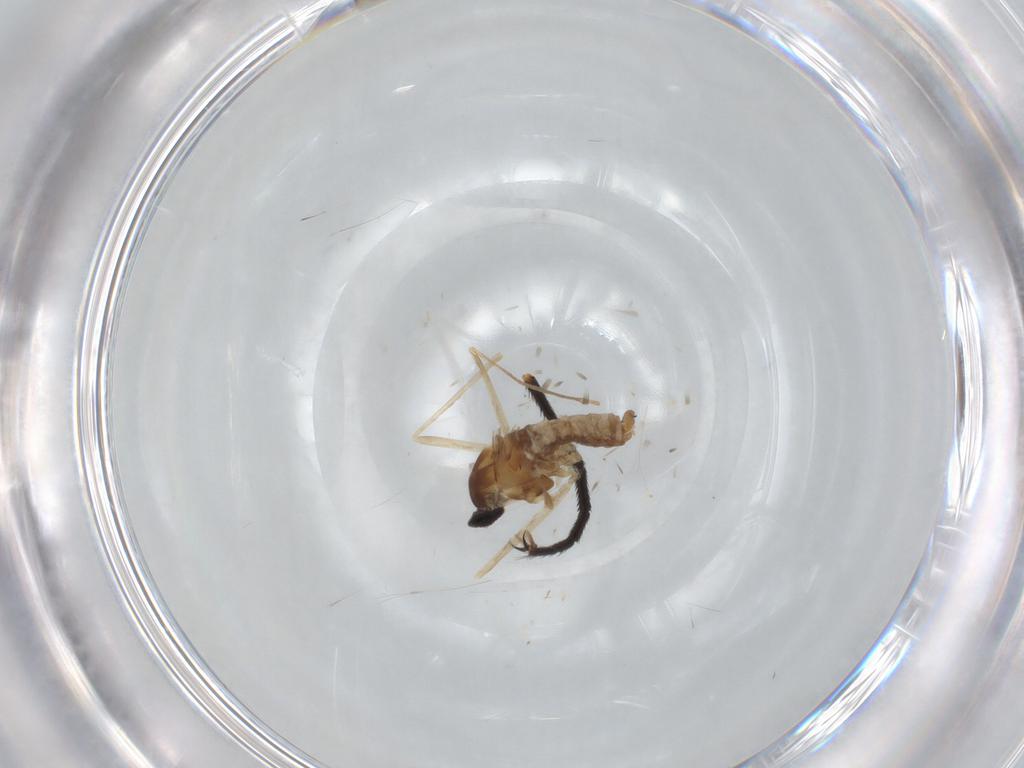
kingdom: Animalia
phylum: Arthropoda
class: Insecta
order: Diptera
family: Cecidomyiidae
